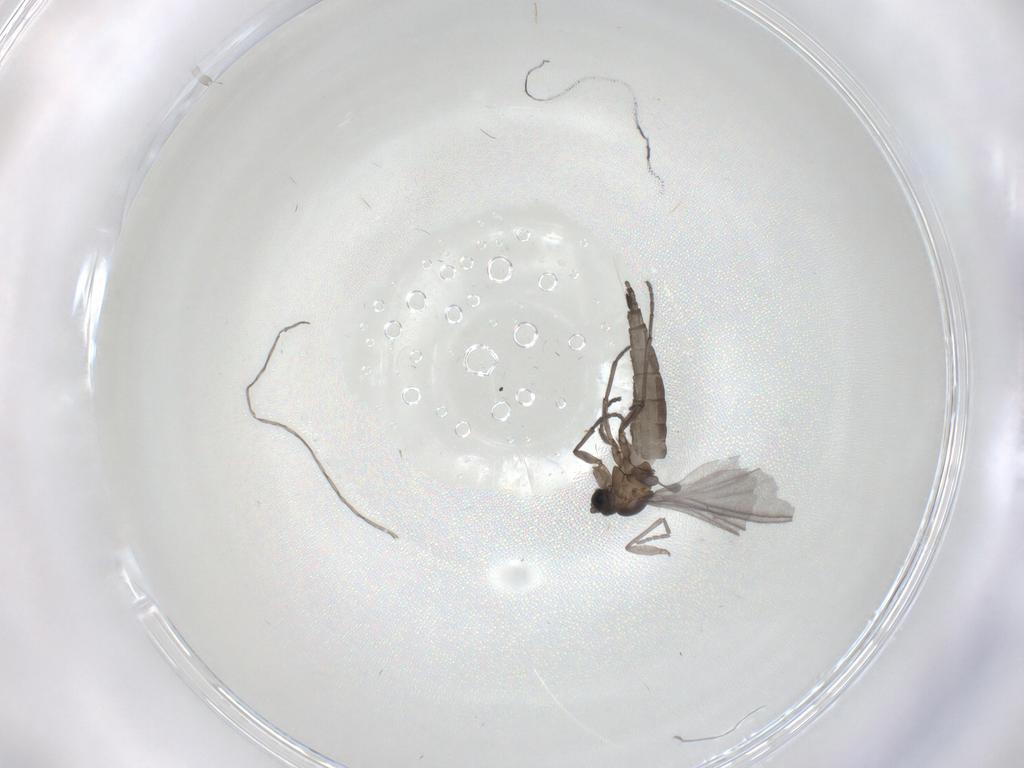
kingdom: Animalia
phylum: Arthropoda
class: Insecta
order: Diptera
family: Sciaridae
